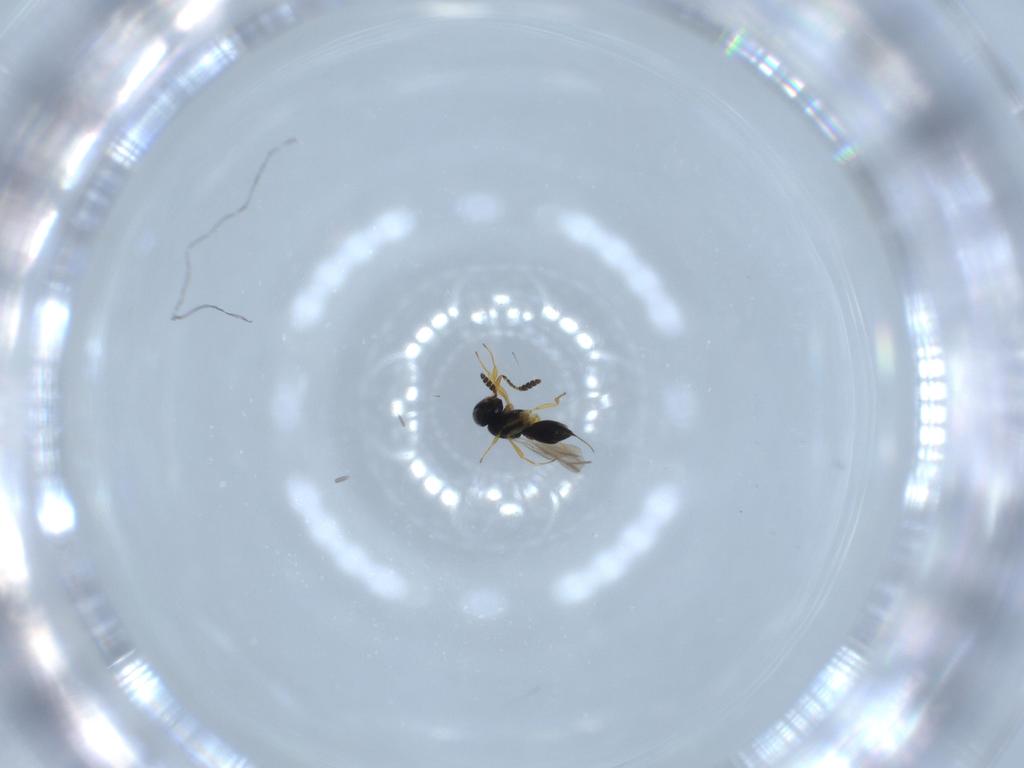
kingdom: Animalia
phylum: Arthropoda
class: Insecta
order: Hymenoptera
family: Scelionidae
